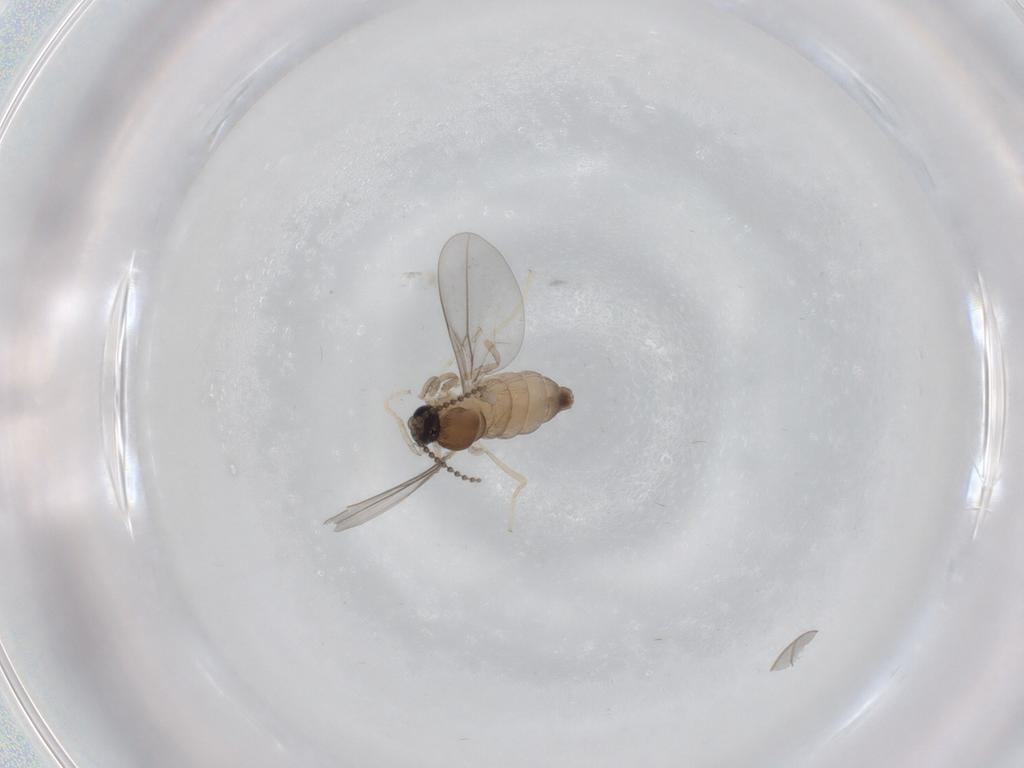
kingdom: Animalia
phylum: Arthropoda
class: Insecta
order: Diptera
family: Cecidomyiidae
